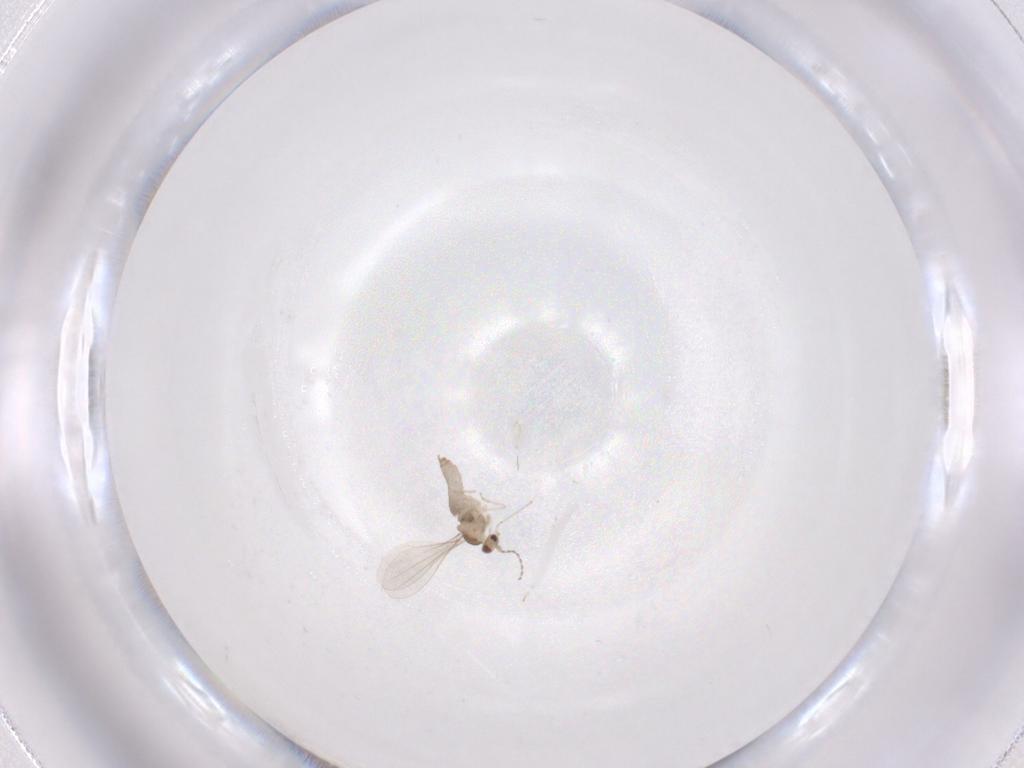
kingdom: Animalia
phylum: Arthropoda
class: Insecta
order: Diptera
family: Cecidomyiidae
